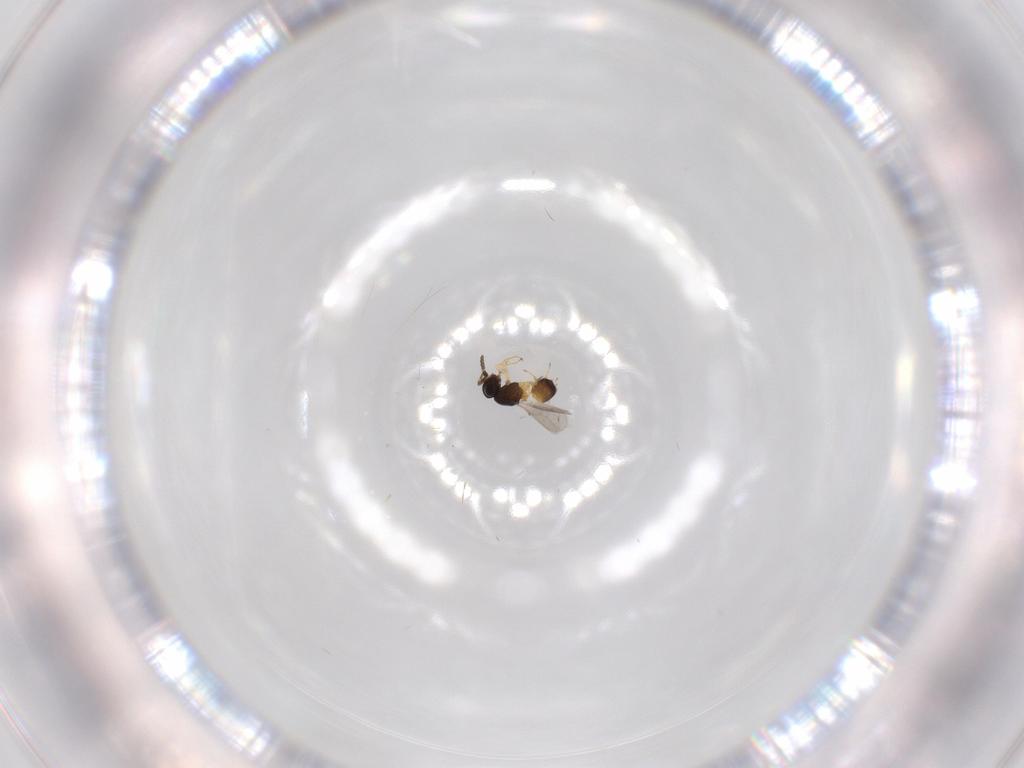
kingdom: Animalia
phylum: Arthropoda
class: Insecta
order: Hymenoptera
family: Scelionidae
